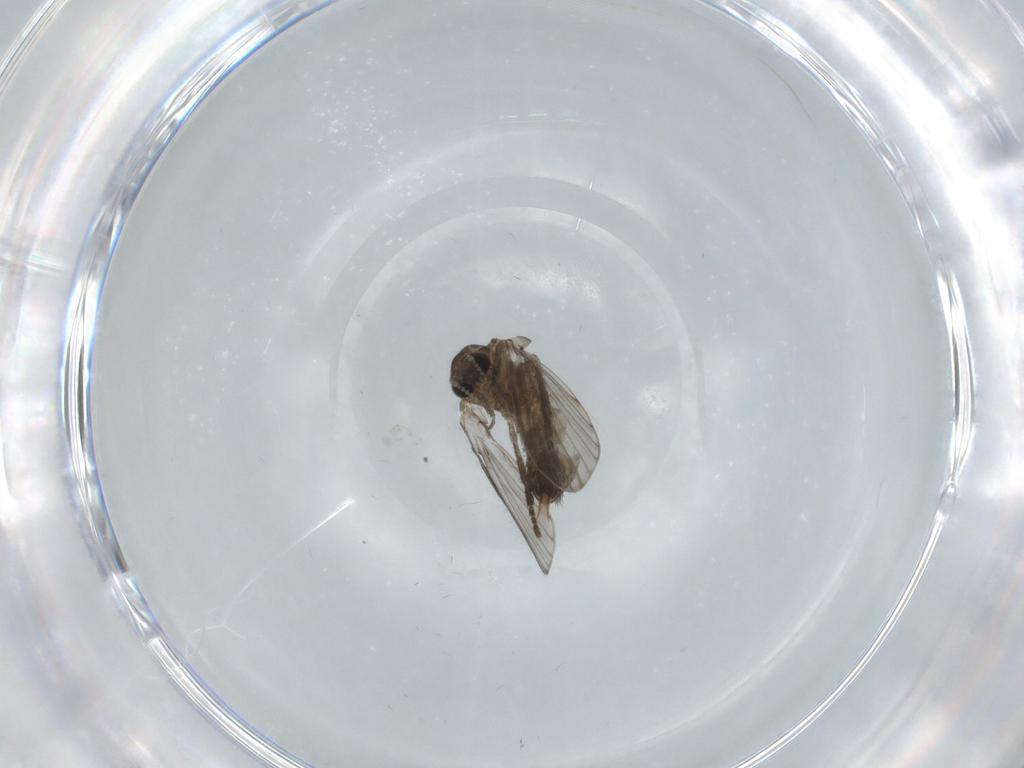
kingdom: Animalia
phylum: Arthropoda
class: Insecta
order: Diptera
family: Psychodidae
